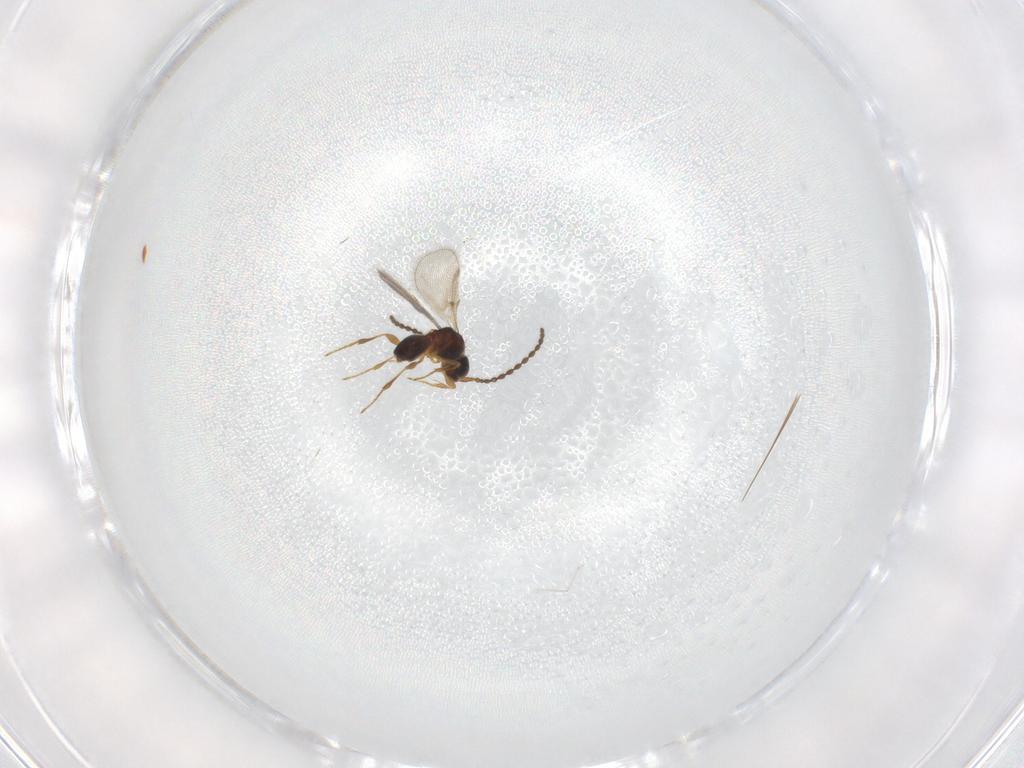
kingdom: Animalia
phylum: Arthropoda
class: Insecta
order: Hymenoptera
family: Diapriidae
